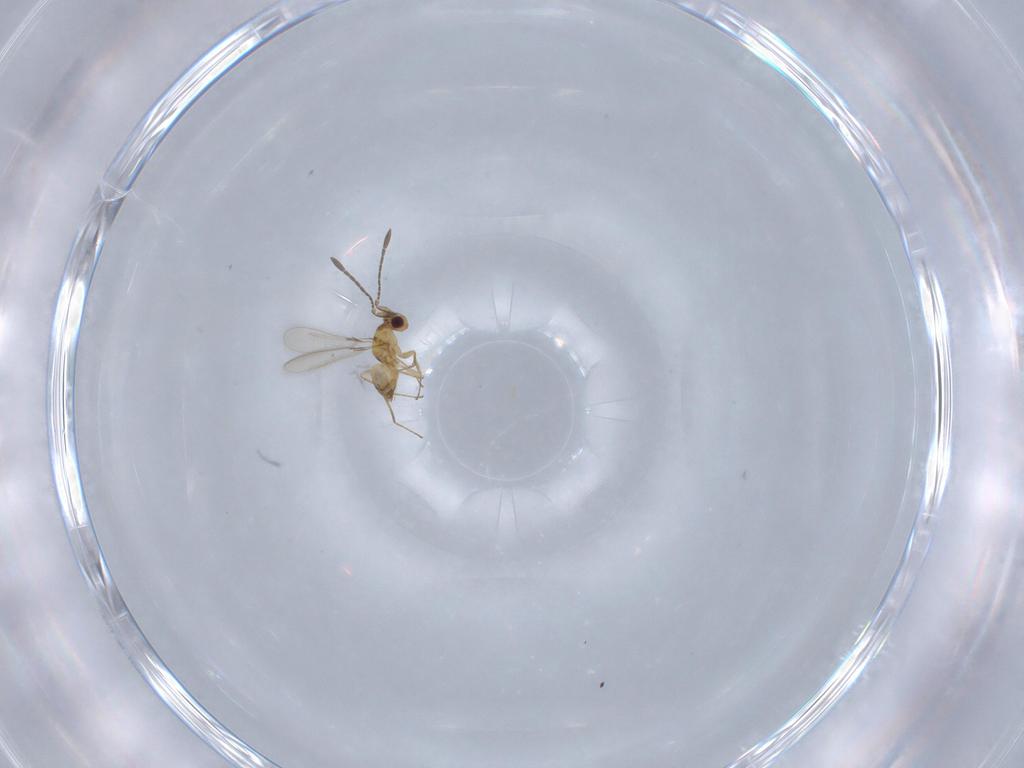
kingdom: Animalia
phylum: Arthropoda
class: Insecta
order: Hymenoptera
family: Mymaridae
